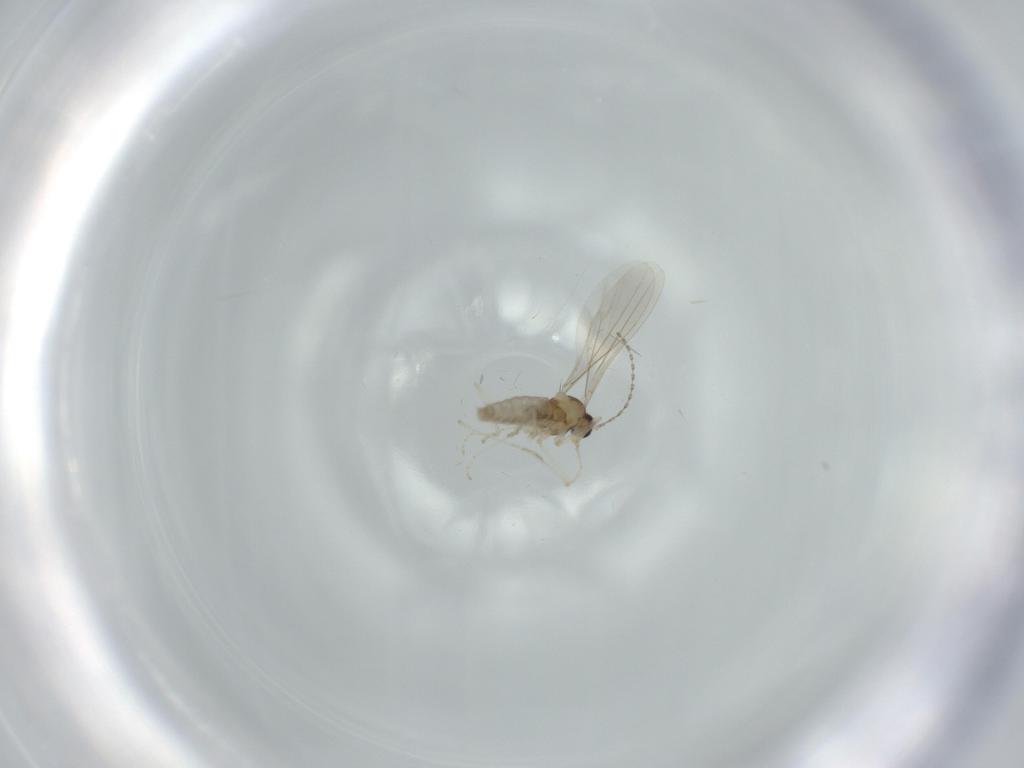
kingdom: Animalia
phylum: Arthropoda
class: Insecta
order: Diptera
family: Cecidomyiidae
